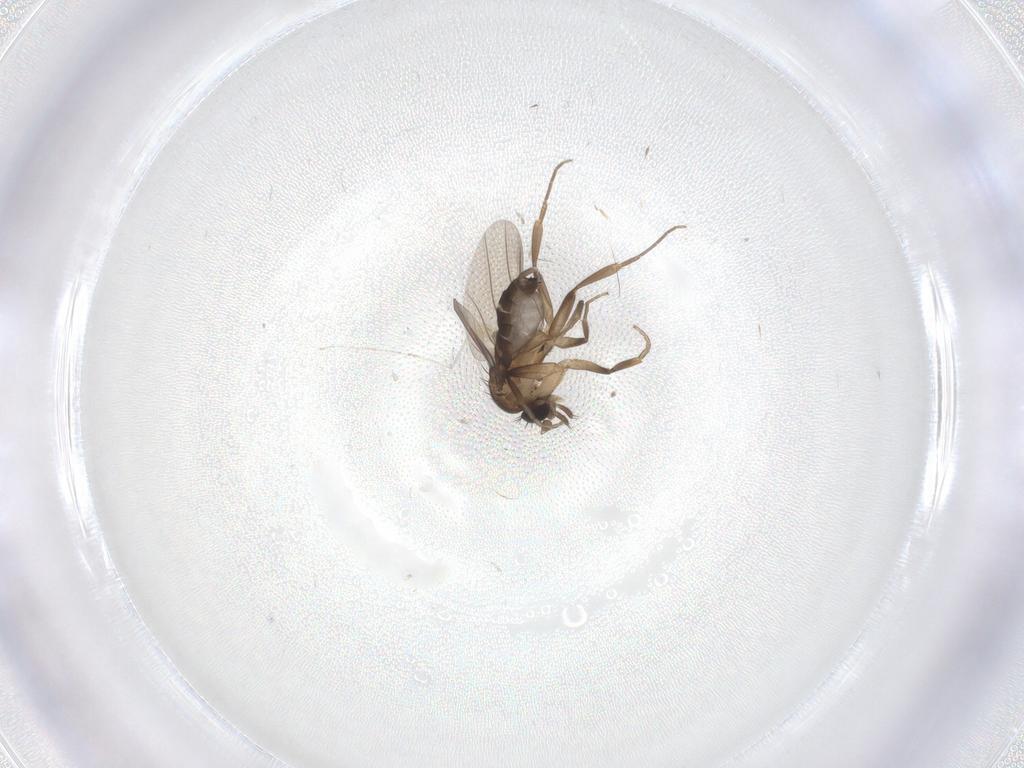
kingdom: Animalia
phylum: Arthropoda
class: Insecta
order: Diptera
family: Phoridae
